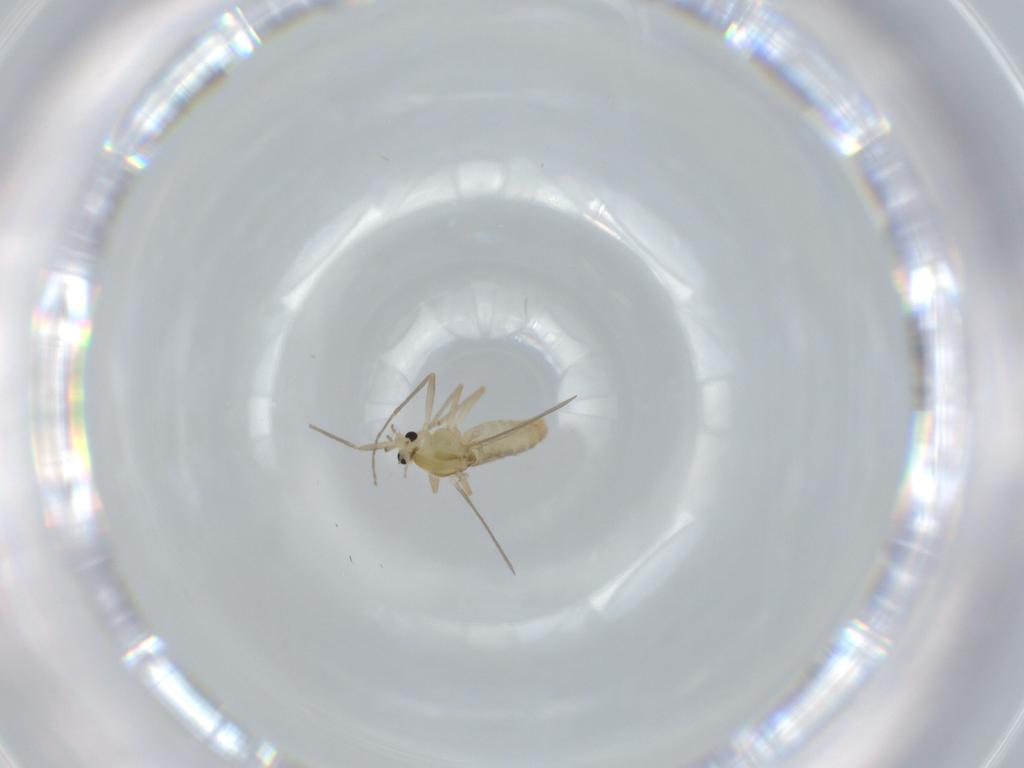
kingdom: Animalia
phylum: Arthropoda
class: Insecta
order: Diptera
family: Chironomidae
